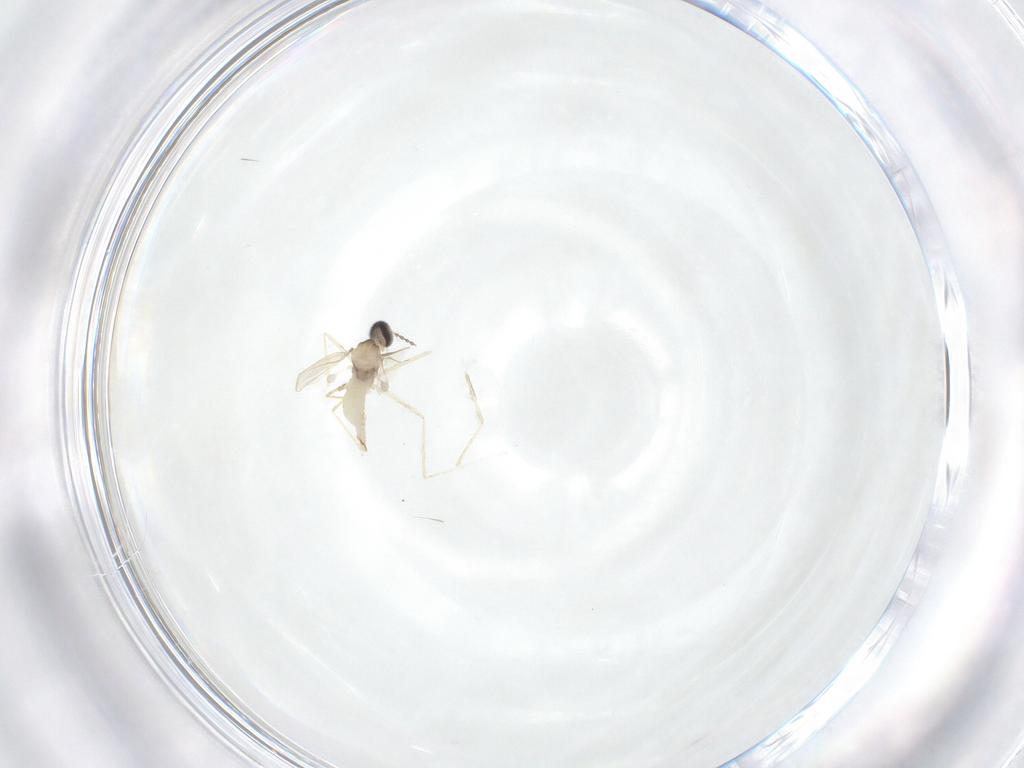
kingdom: Animalia
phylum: Arthropoda
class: Insecta
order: Diptera
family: Cecidomyiidae
